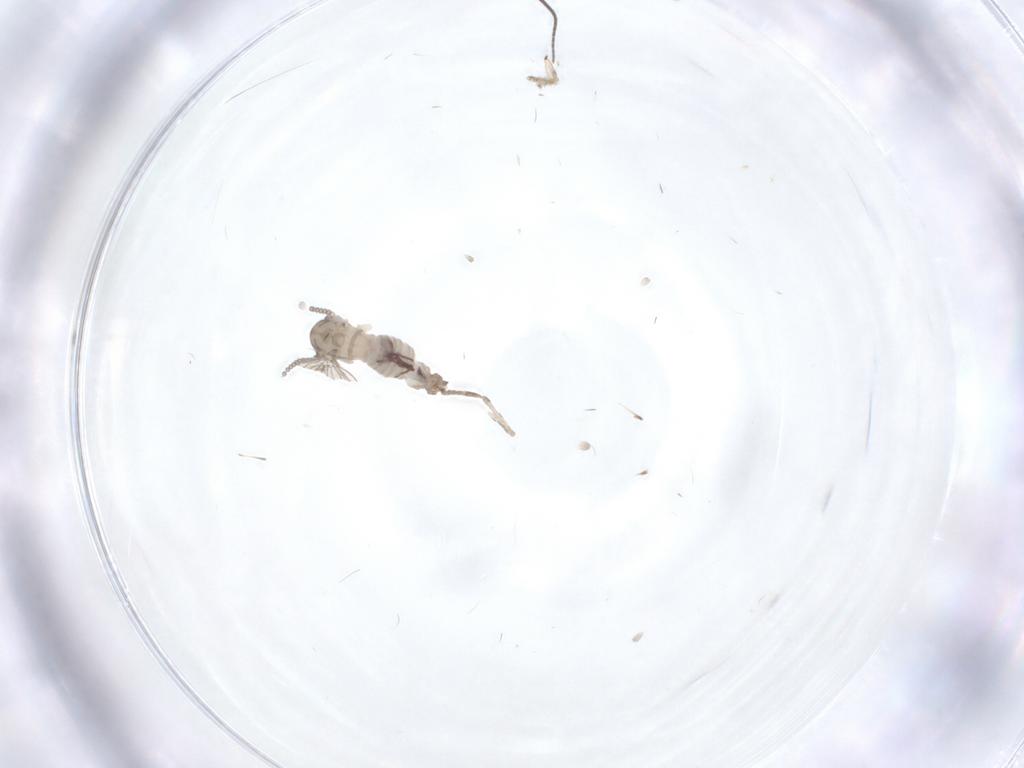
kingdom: Animalia
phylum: Arthropoda
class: Insecta
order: Diptera
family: Psychodidae
